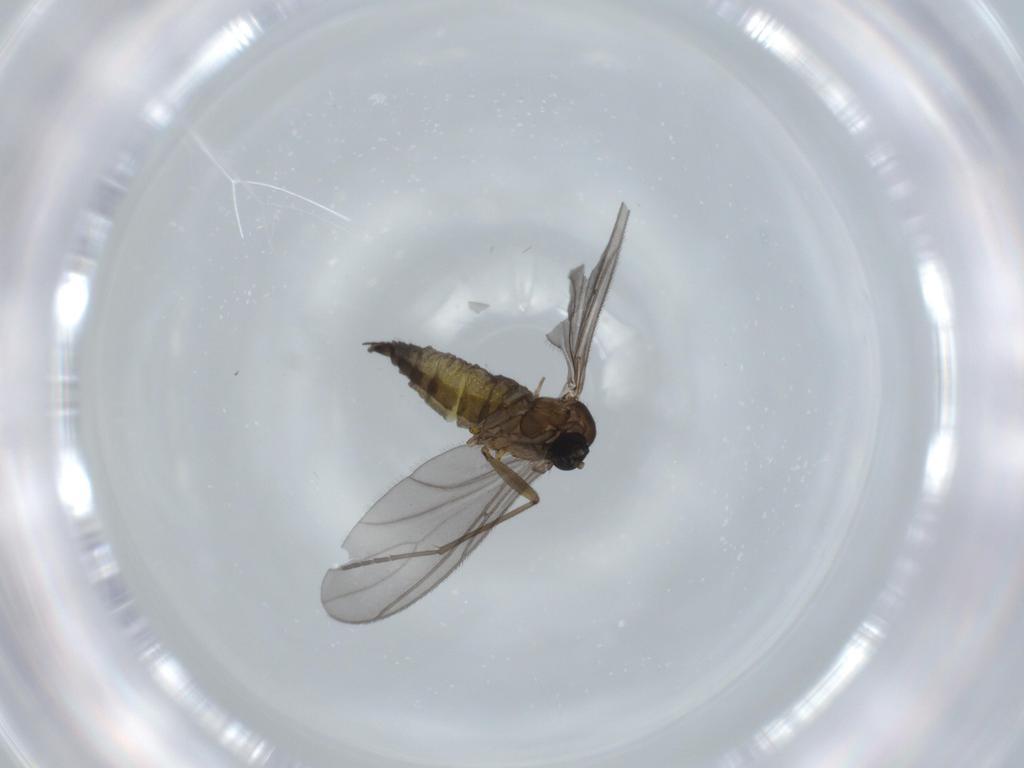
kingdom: Animalia
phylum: Arthropoda
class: Insecta
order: Diptera
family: Sciaridae
